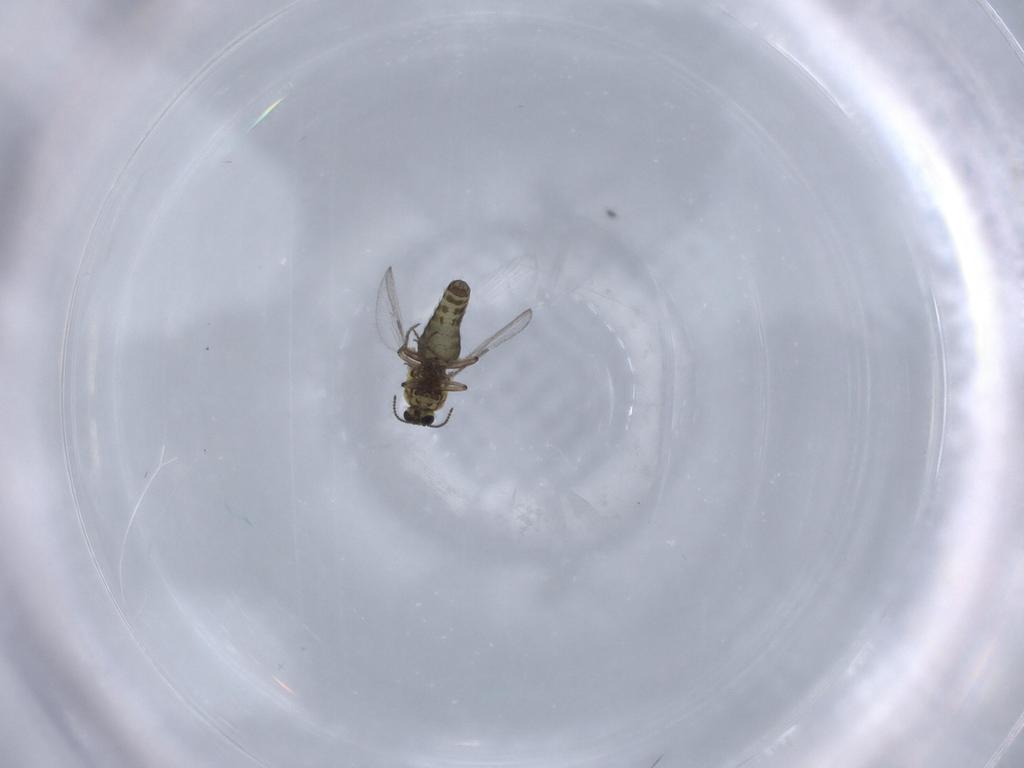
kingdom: Animalia
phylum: Arthropoda
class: Insecta
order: Diptera
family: Ceratopogonidae
